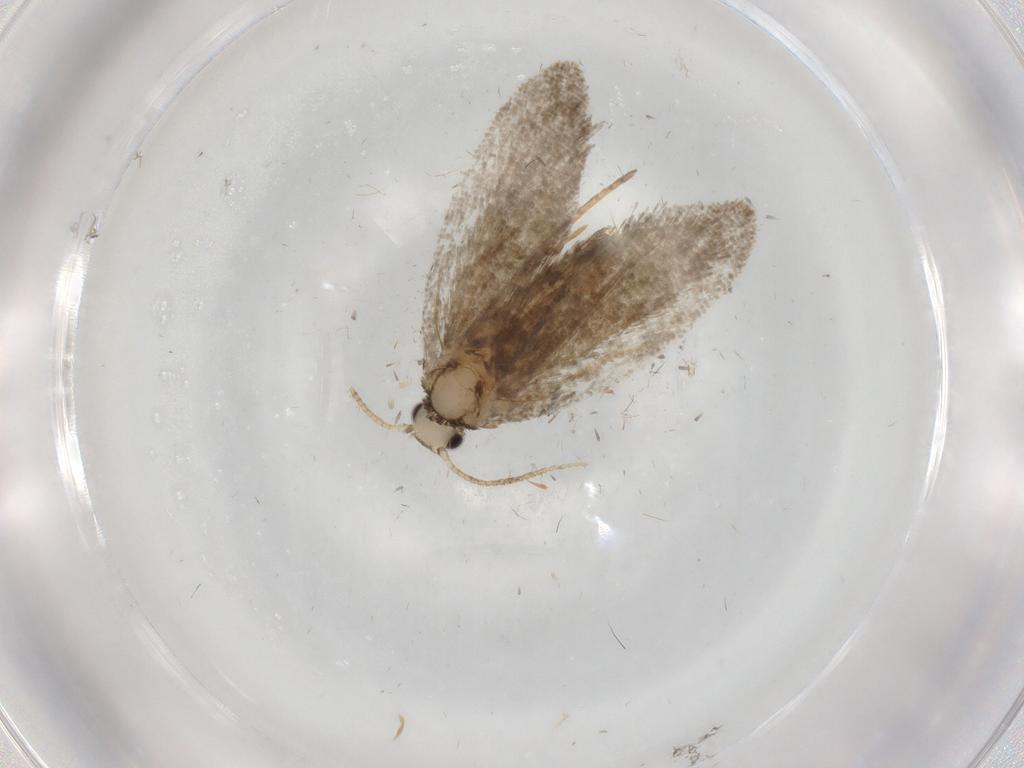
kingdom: Animalia
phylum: Arthropoda
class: Insecta
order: Lepidoptera
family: Psychidae
